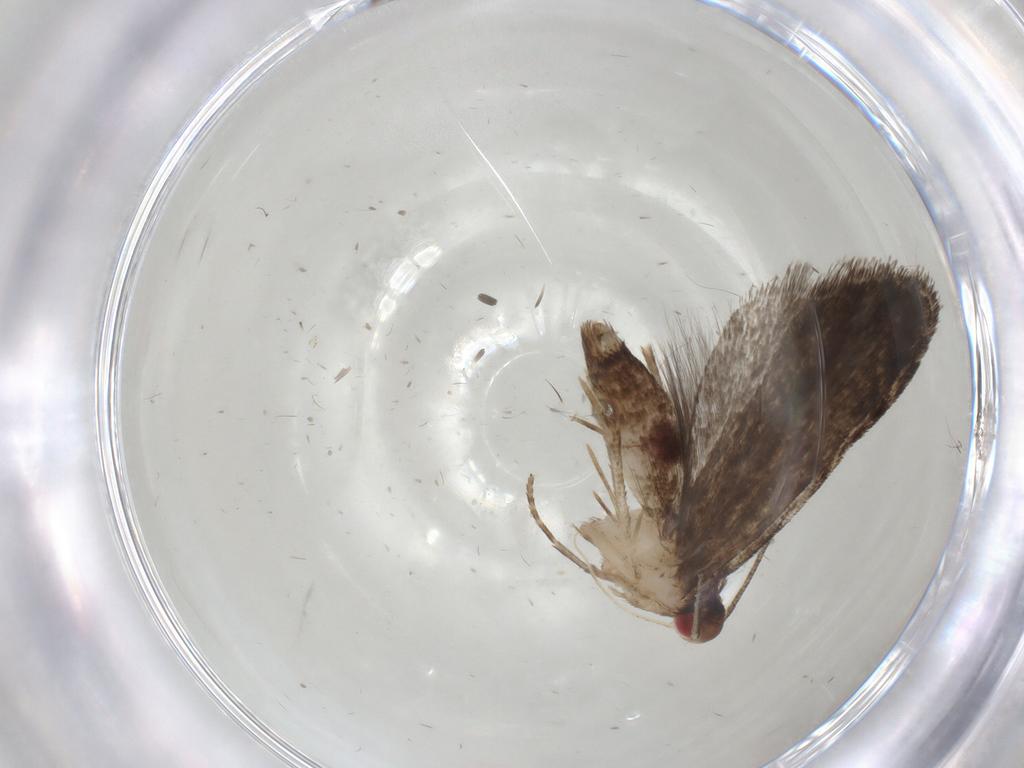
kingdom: Animalia
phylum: Arthropoda
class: Insecta
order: Lepidoptera
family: Gelechiidae
